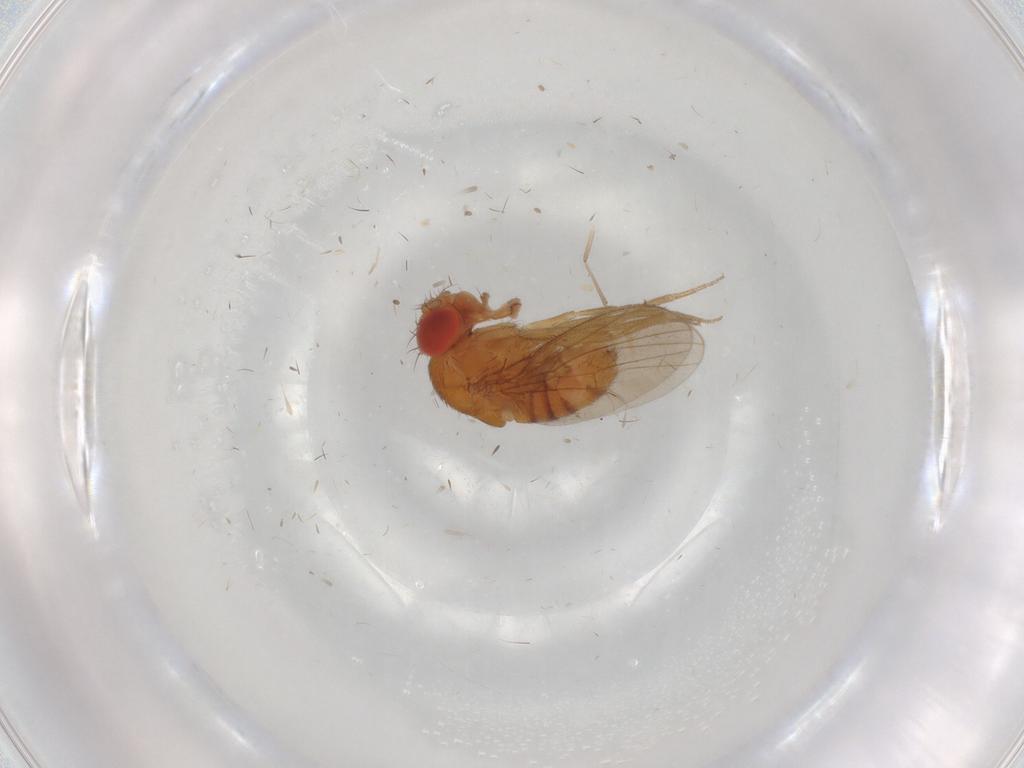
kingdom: Animalia
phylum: Arthropoda
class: Insecta
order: Diptera
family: Drosophilidae
